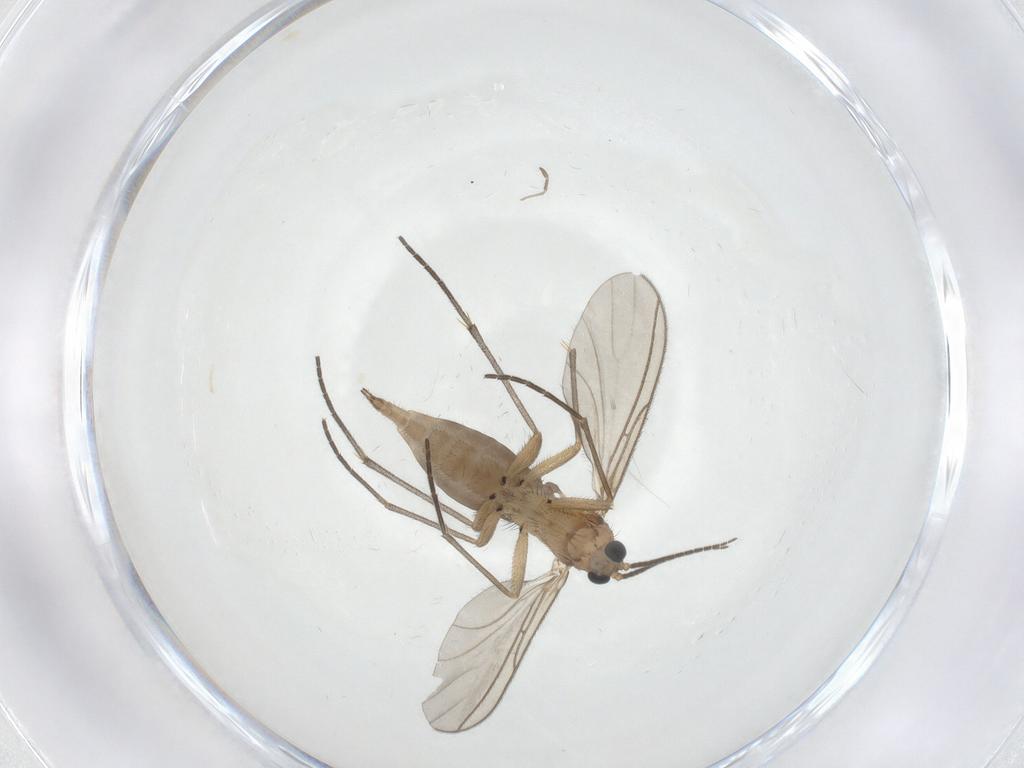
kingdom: Animalia
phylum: Arthropoda
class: Insecta
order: Diptera
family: Sciaridae
